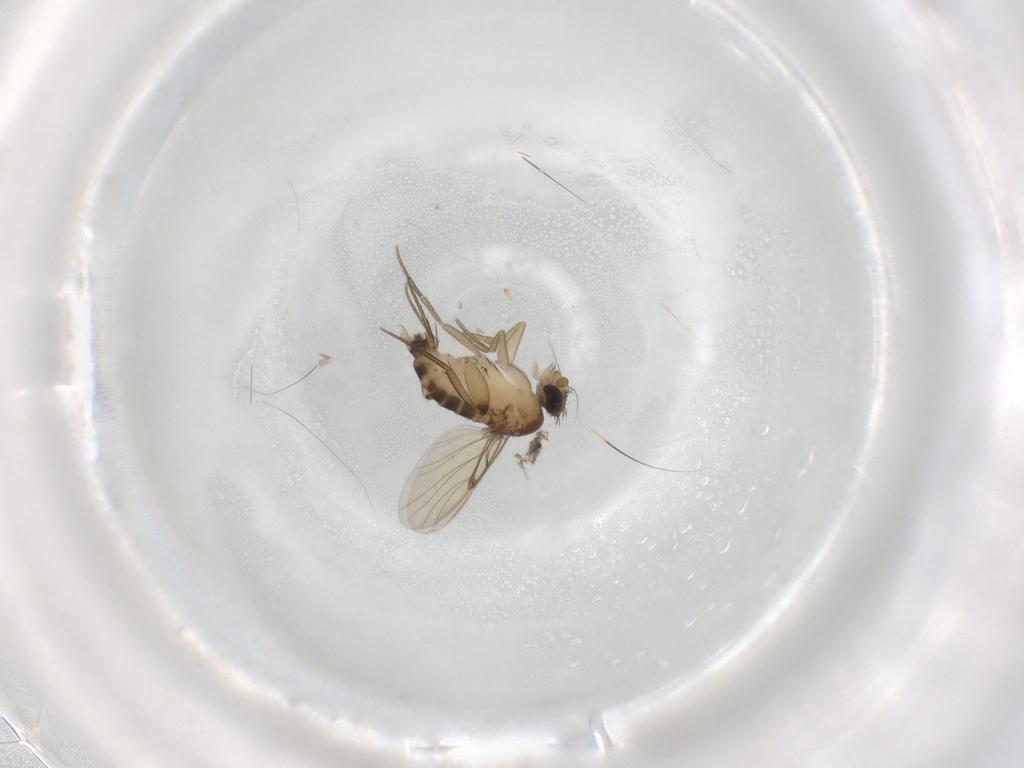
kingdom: Animalia
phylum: Arthropoda
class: Insecta
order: Diptera
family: Phoridae
